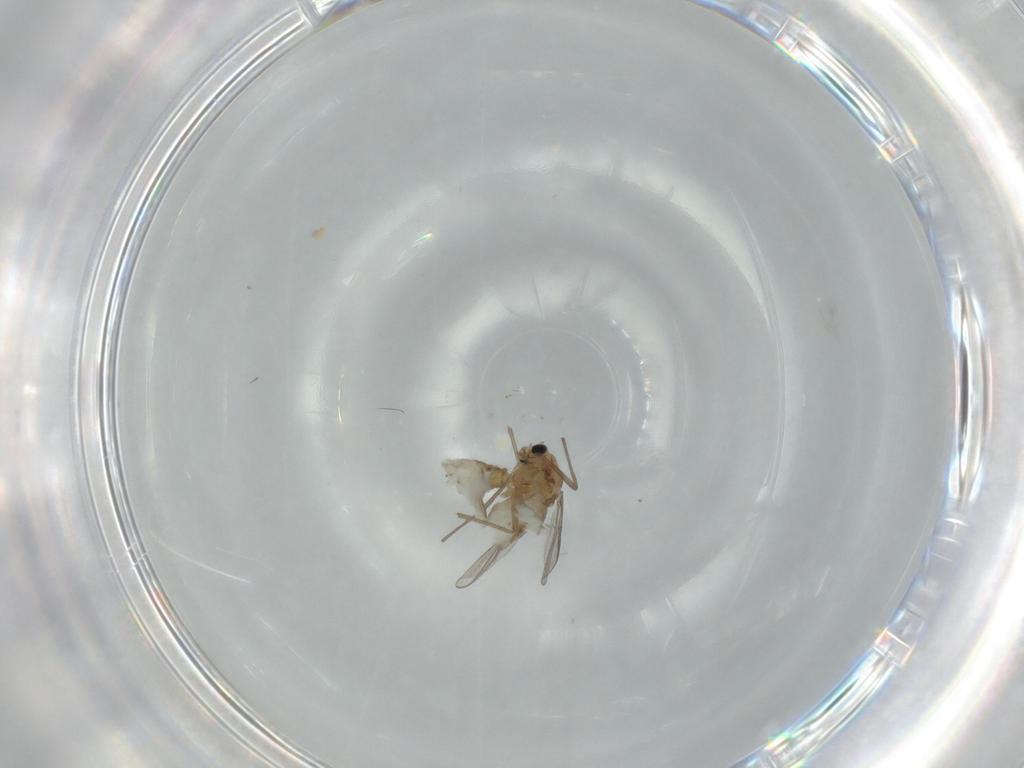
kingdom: Animalia
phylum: Arthropoda
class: Insecta
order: Diptera
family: Chironomidae
